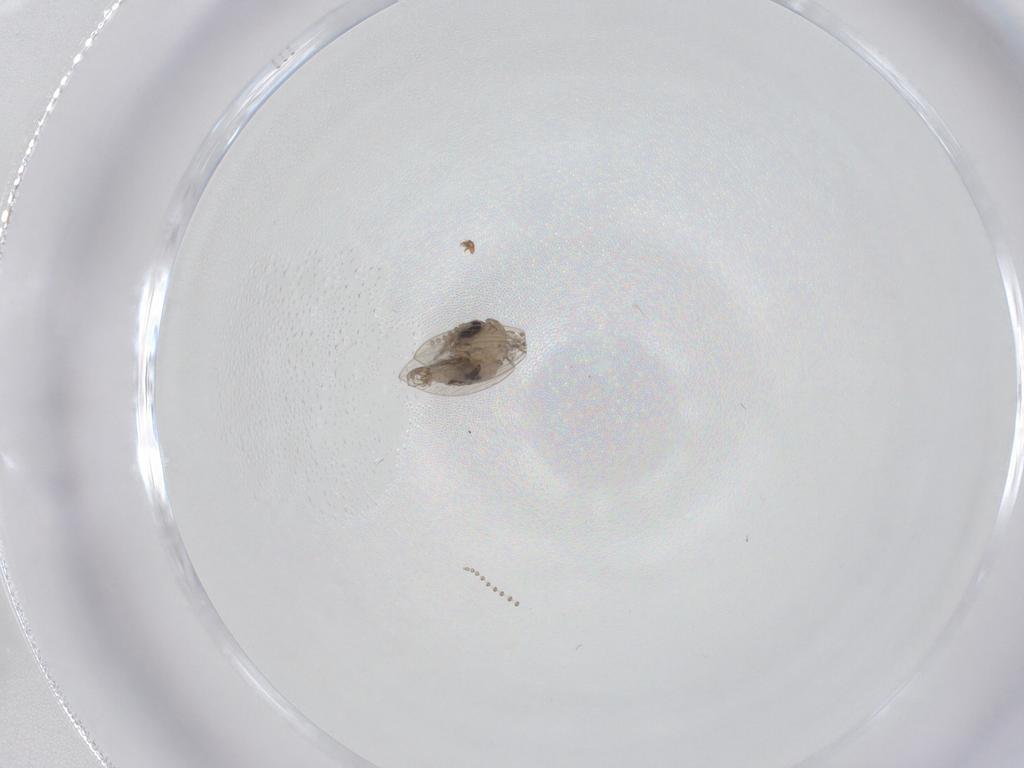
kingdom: Animalia
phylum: Arthropoda
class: Insecta
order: Diptera
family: Psychodidae
